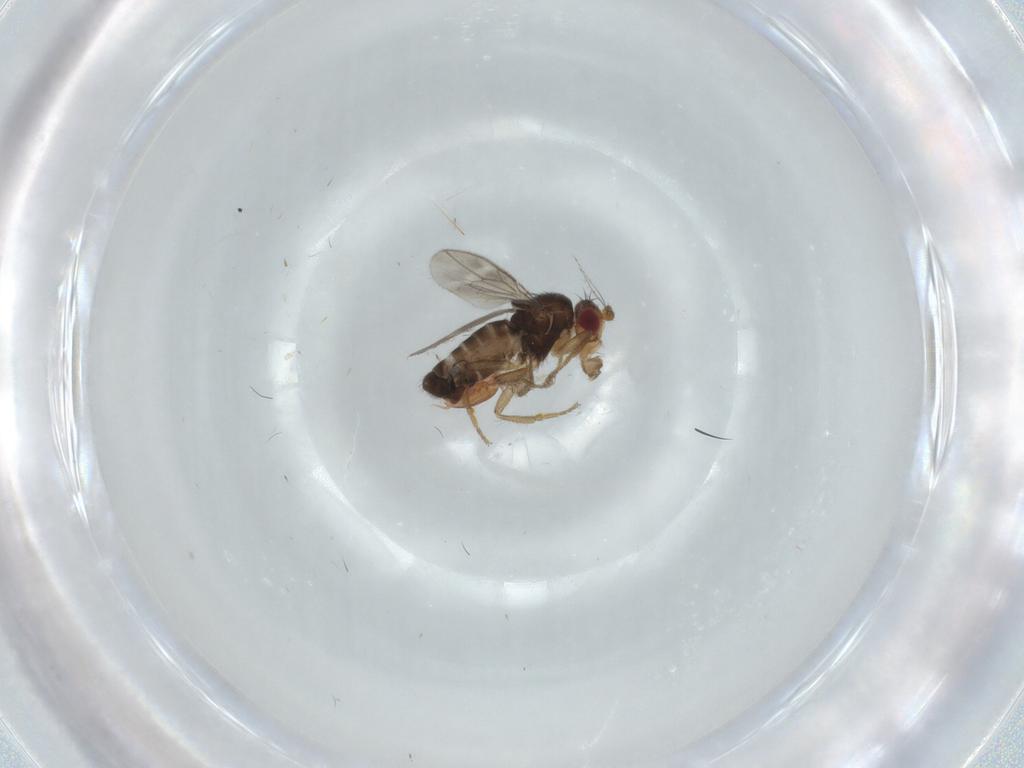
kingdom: Animalia
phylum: Arthropoda
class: Insecta
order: Diptera
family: Sphaeroceridae
